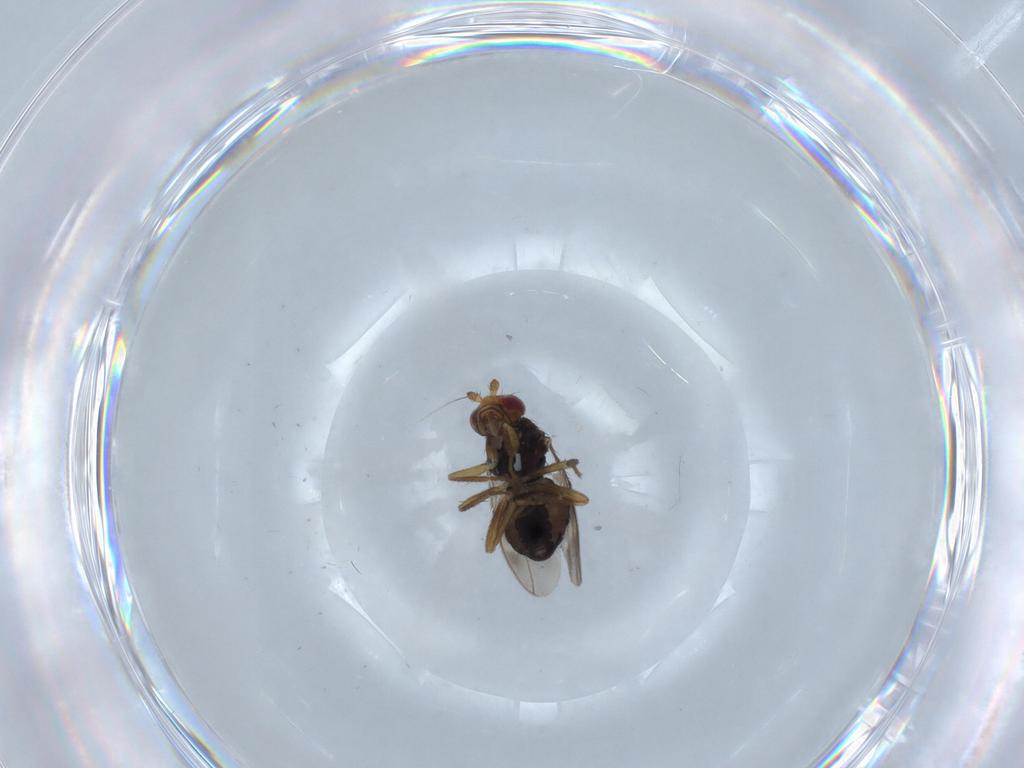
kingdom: Animalia
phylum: Arthropoda
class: Insecta
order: Diptera
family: Sphaeroceridae
